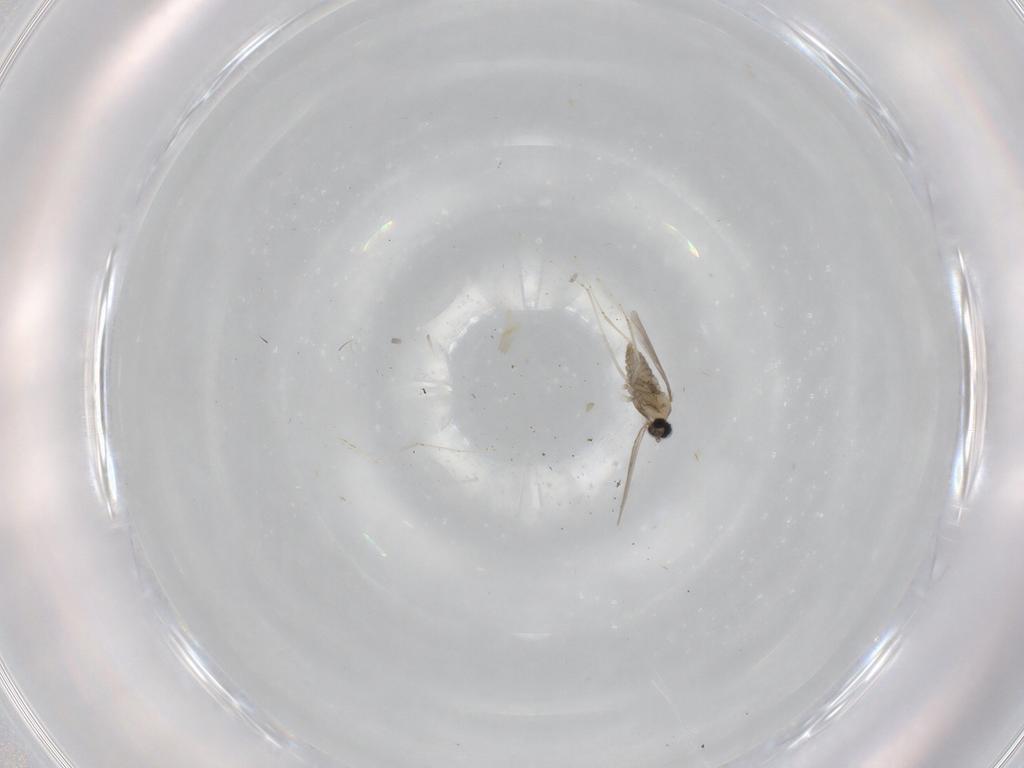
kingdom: Animalia
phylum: Arthropoda
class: Insecta
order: Diptera
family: Cecidomyiidae
